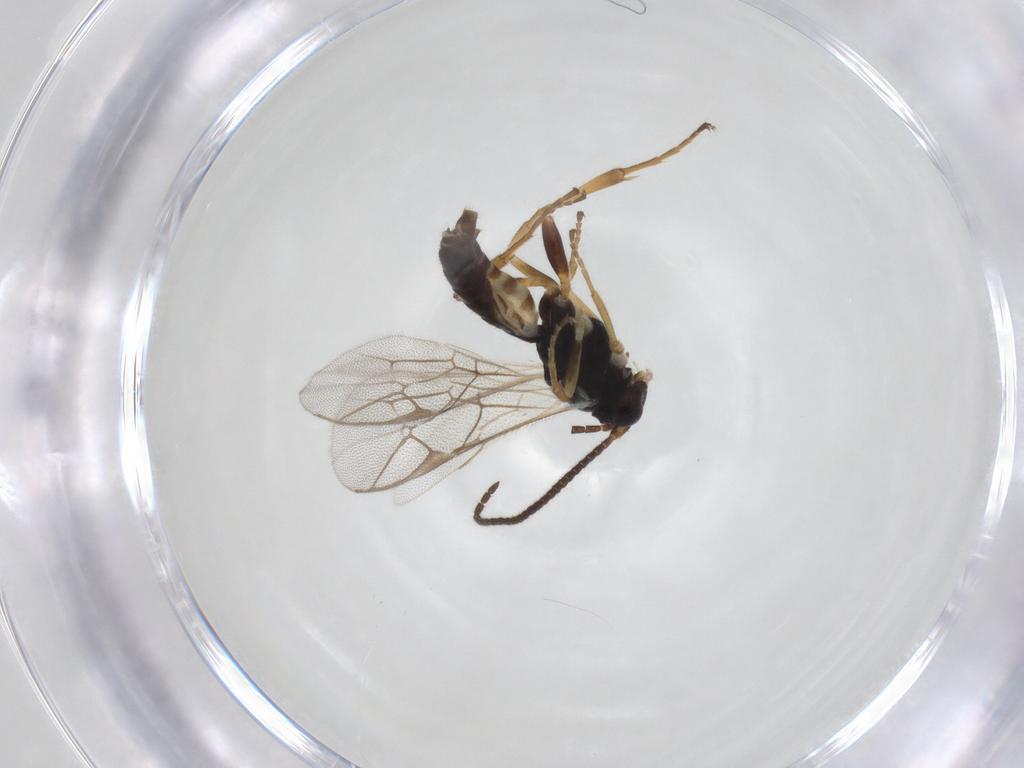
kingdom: Animalia
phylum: Arthropoda
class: Insecta
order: Hymenoptera
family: Ichneumonidae
